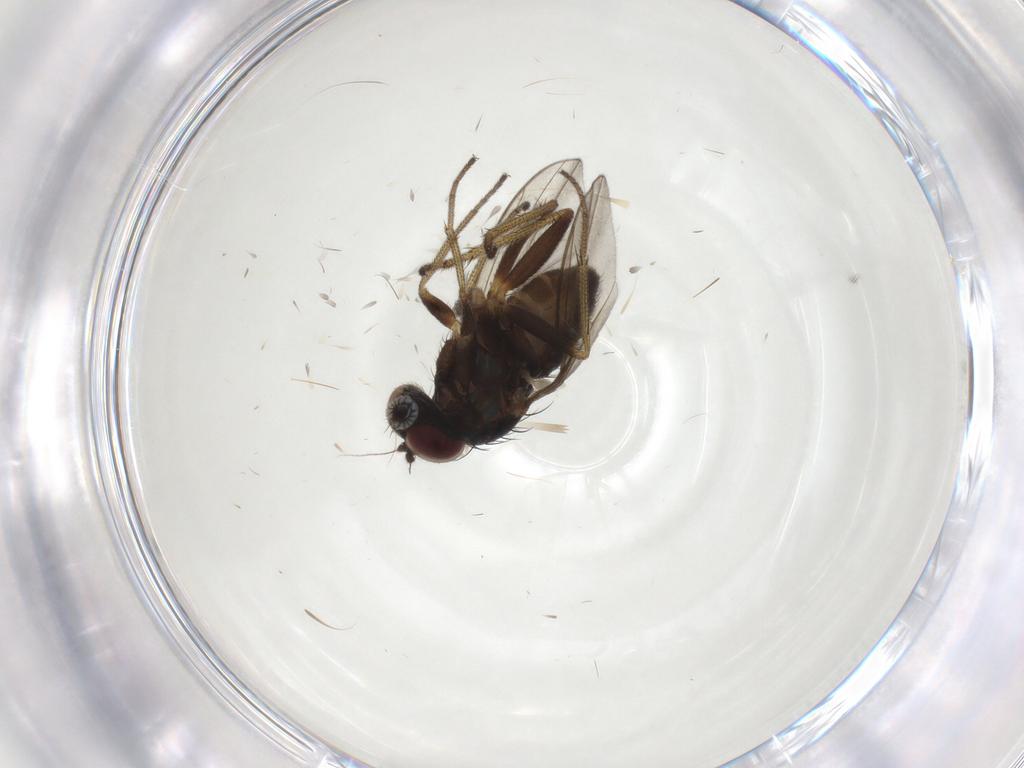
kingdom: Animalia
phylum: Arthropoda
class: Insecta
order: Diptera
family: Dolichopodidae
